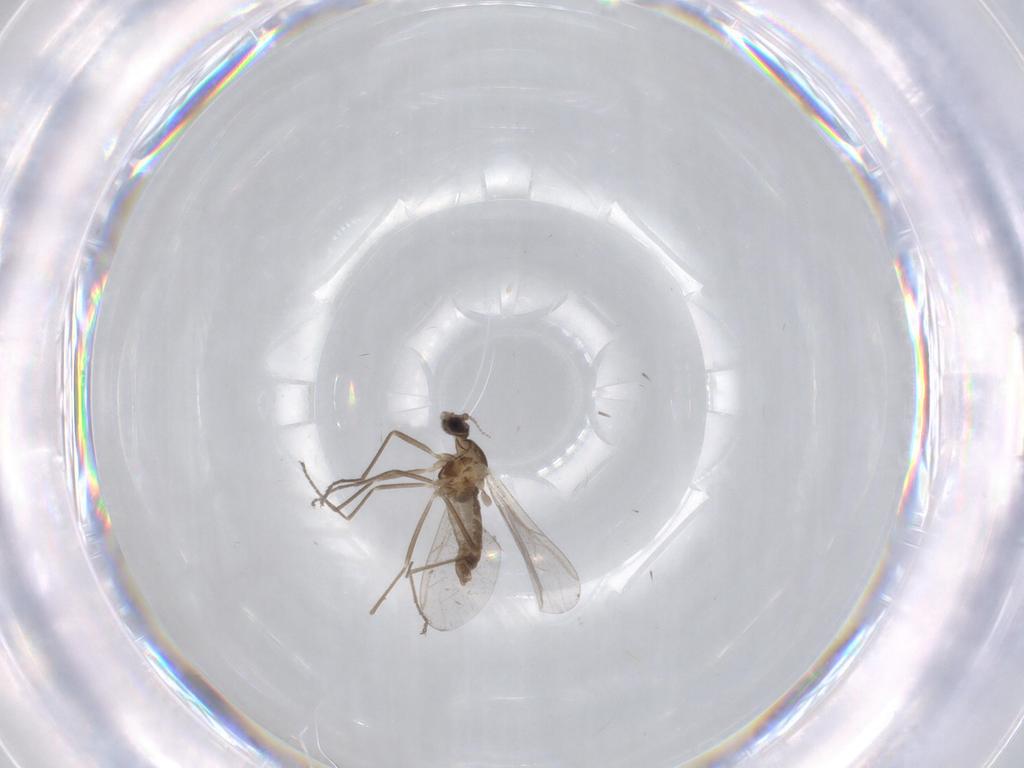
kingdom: Animalia
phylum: Arthropoda
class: Insecta
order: Diptera
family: Cecidomyiidae
